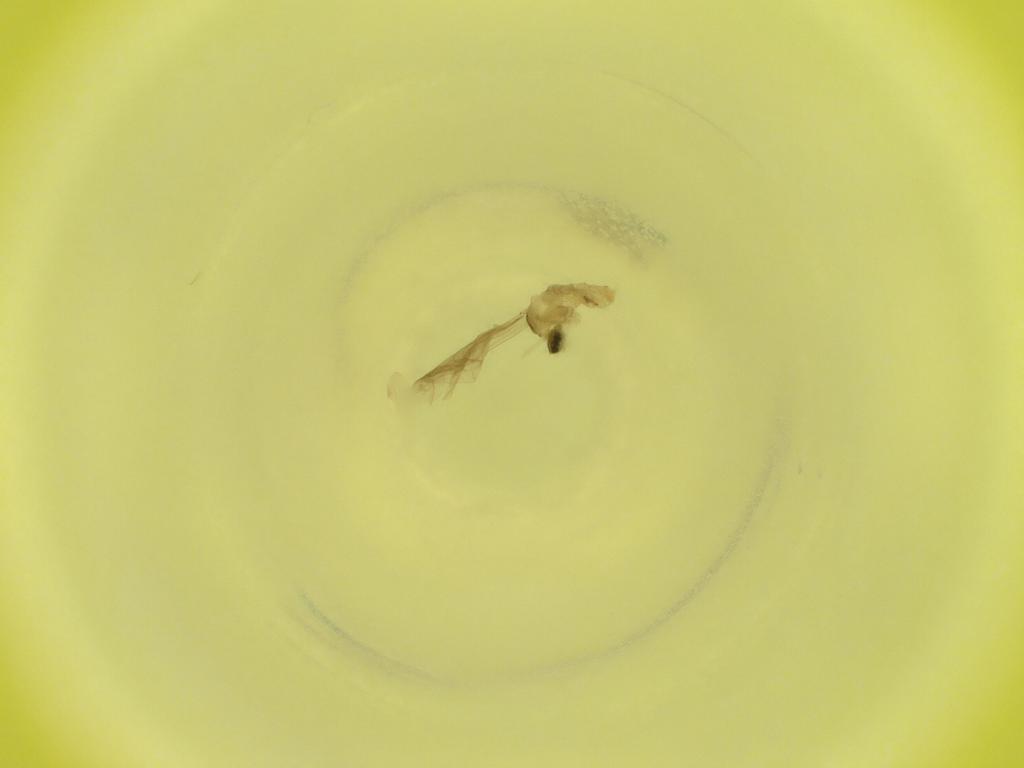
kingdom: Animalia
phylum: Arthropoda
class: Insecta
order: Diptera
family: Cecidomyiidae
